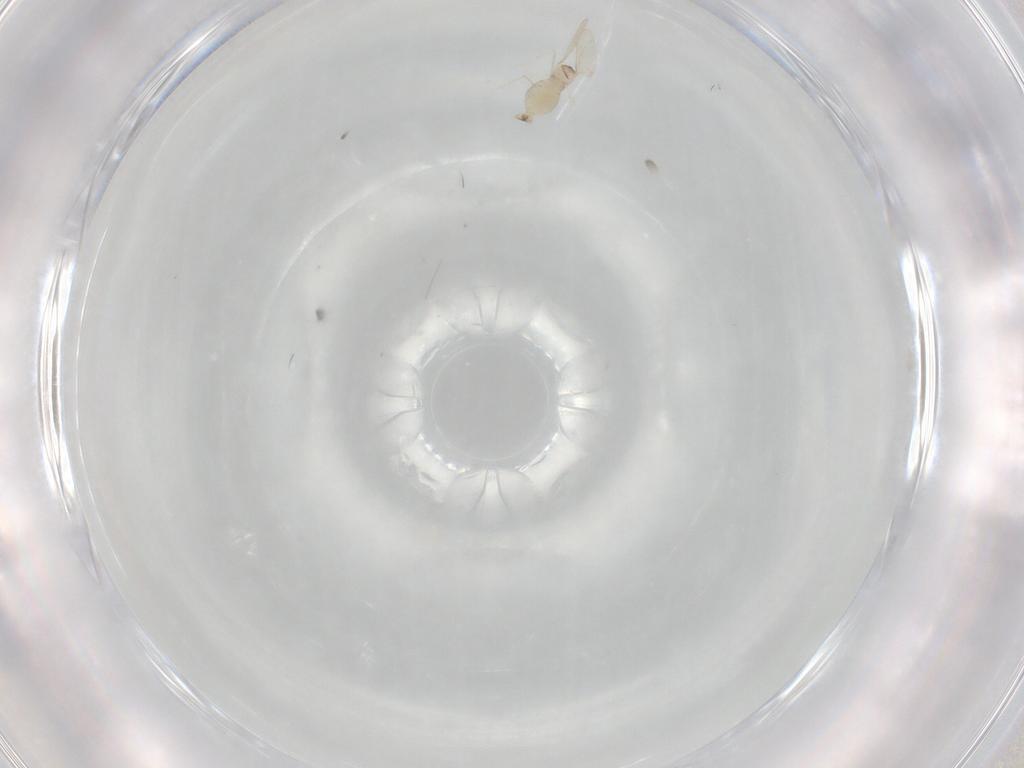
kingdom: Animalia
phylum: Arthropoda
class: Insecta
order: Diptera
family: Cecidomyiidae
